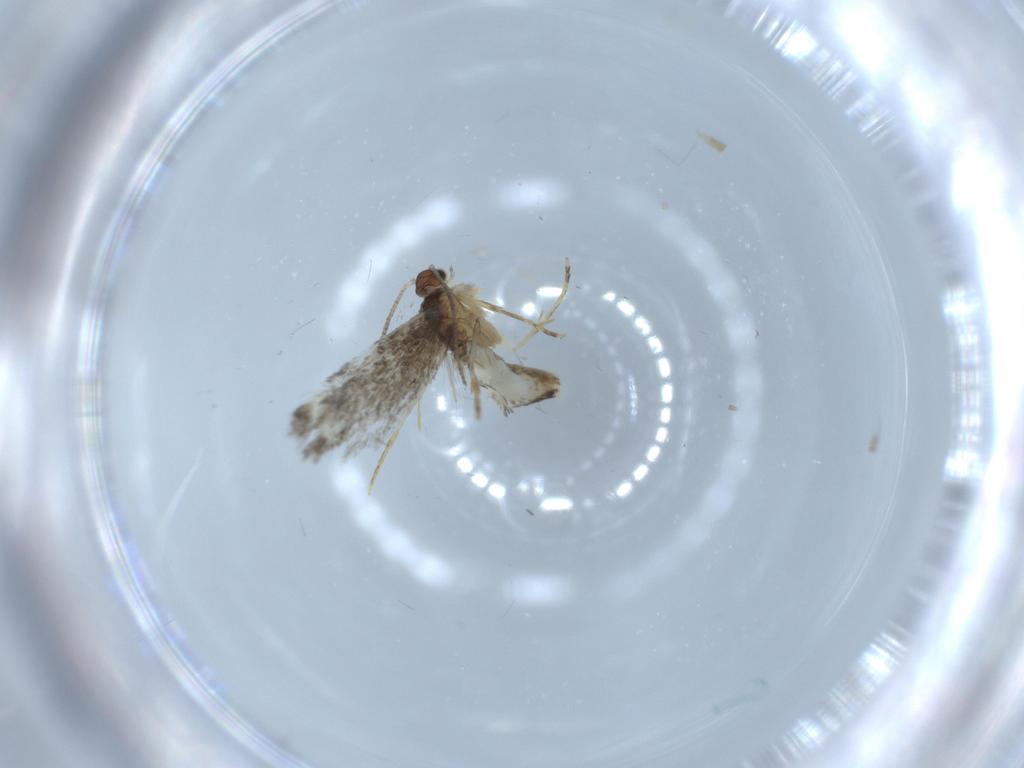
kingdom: Animalia
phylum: Arthropoda
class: Insecta
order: Lepidoptera
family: Tineidae
